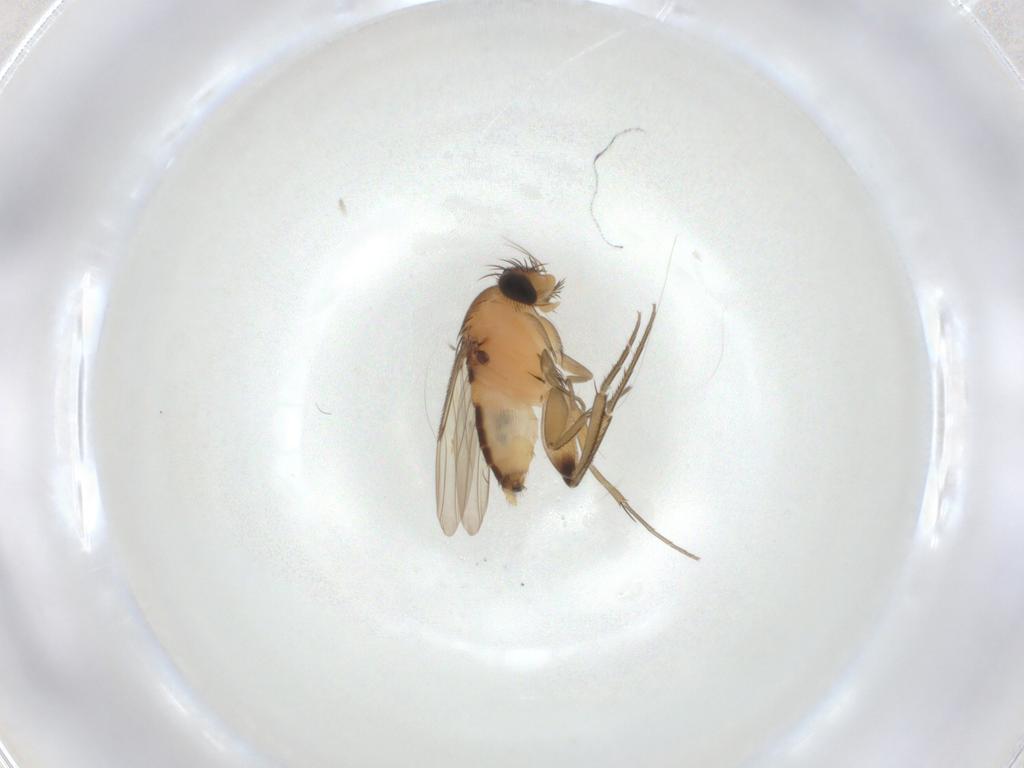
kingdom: Animalia
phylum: Arthropoda
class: Insecta
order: Diptera
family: Phoridae
